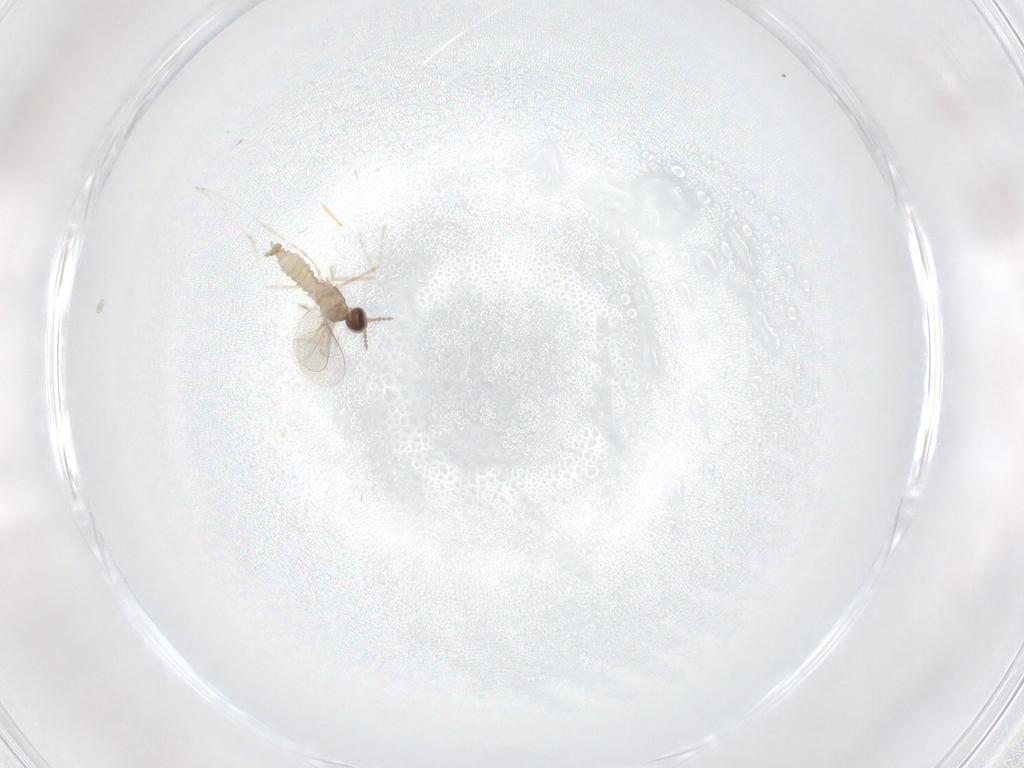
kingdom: Animalia
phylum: Arthropoda
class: Insecta
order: Diptera
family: Cecidomyiidae
